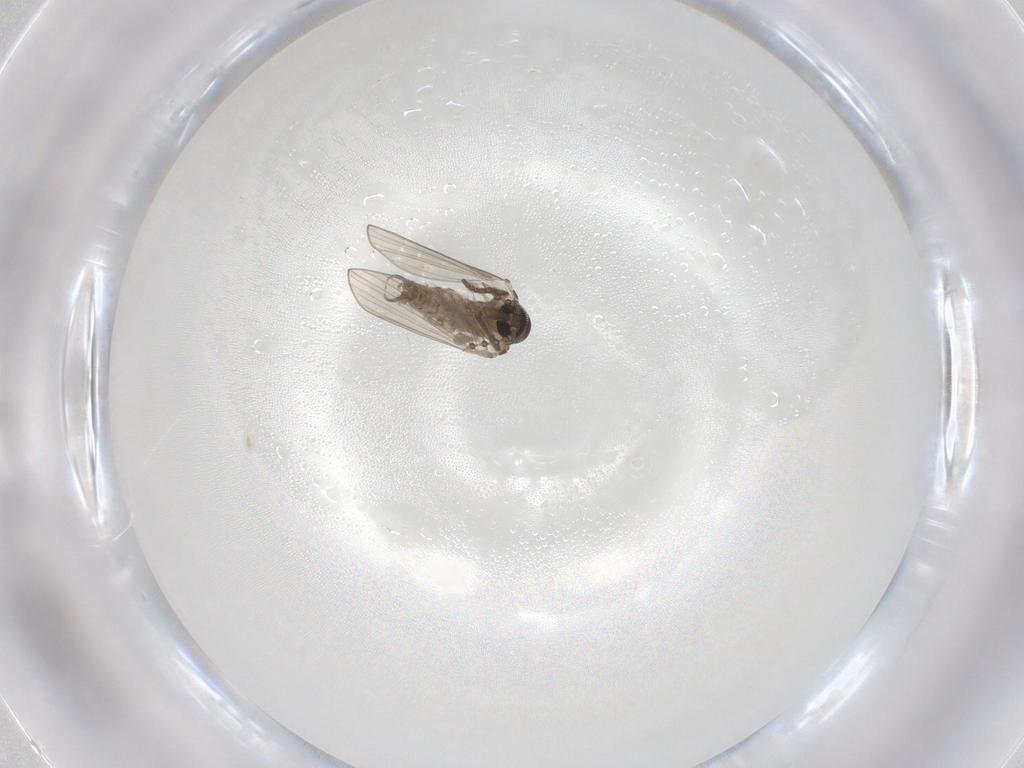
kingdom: Animalia
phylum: Arthropoda
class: Insecta
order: Diptera
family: Psychodidae
